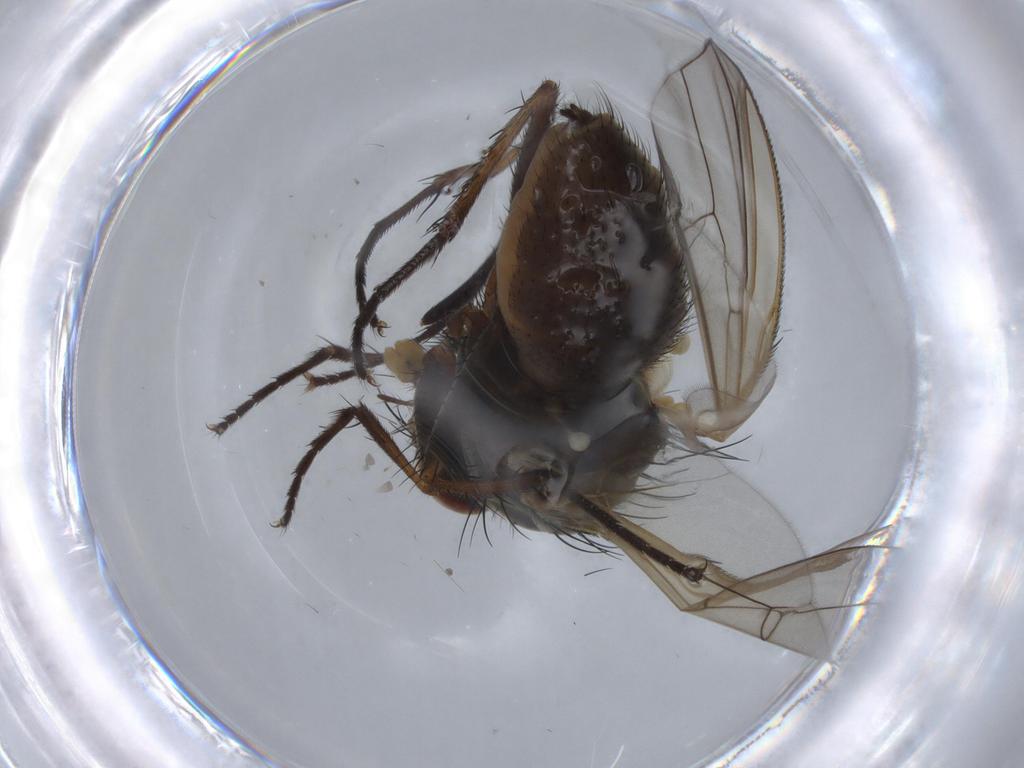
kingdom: Animalia
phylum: Arthropoda
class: Insecta
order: Diptera
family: Anthomyiidae
